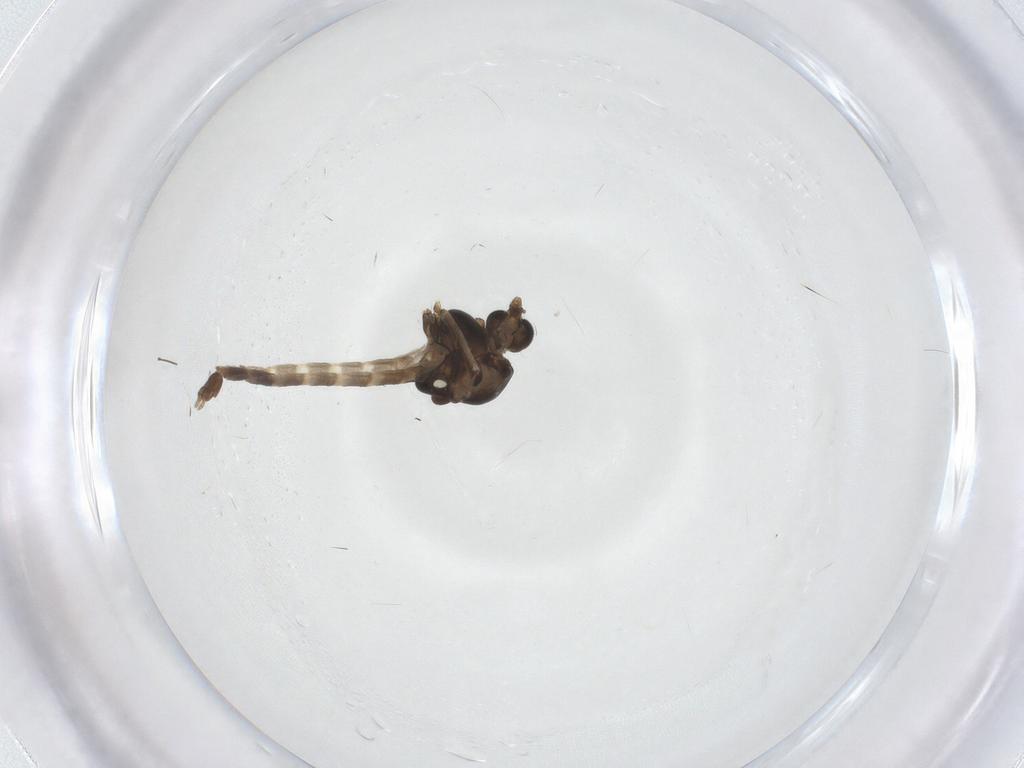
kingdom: Animalia
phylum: Arthropoda
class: Insecta
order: Diptera
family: Chironomidae
